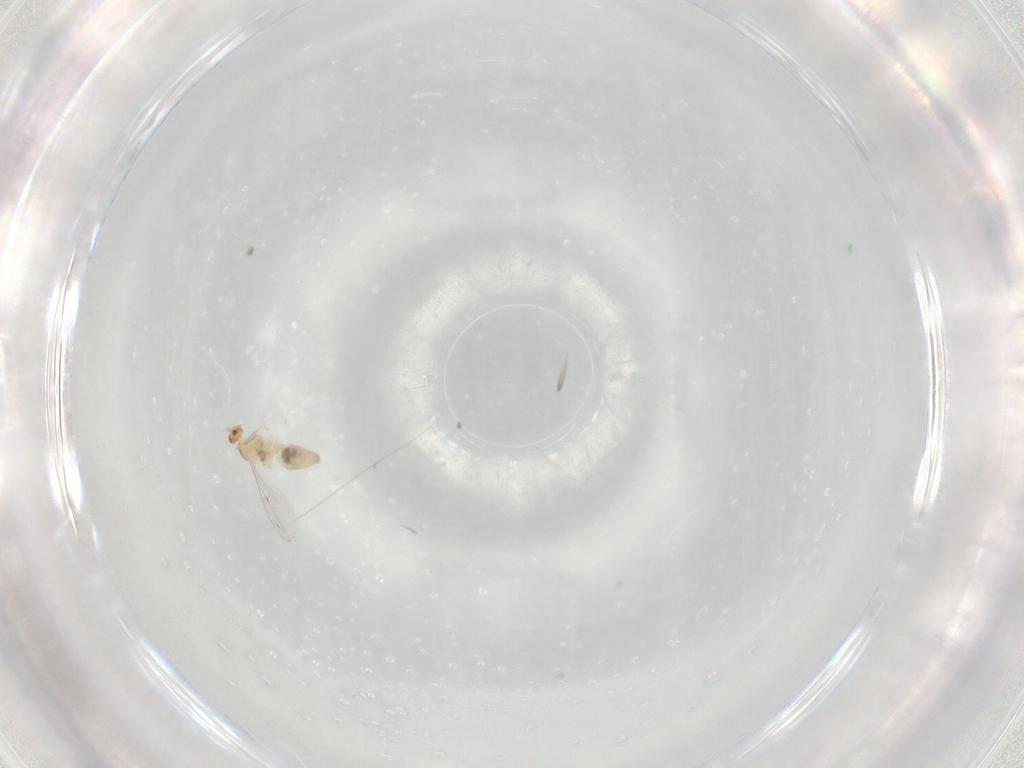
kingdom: Animalia
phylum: Arthropoda
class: Insecta
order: Diptera
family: Cecidomyiidae
